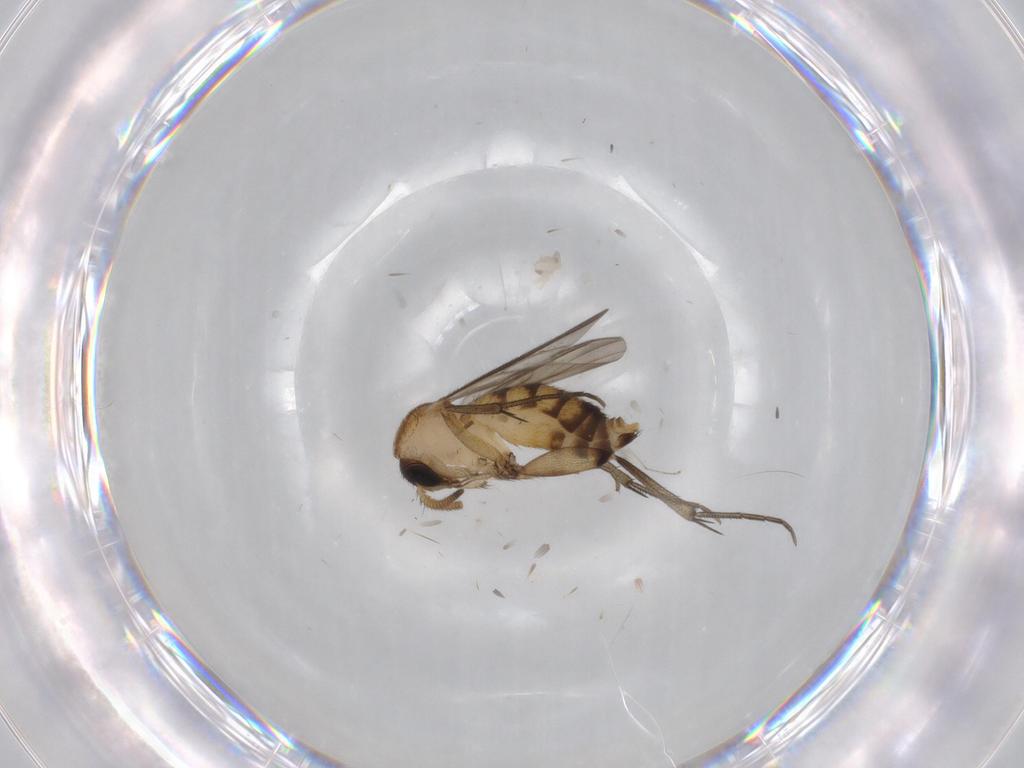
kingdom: Animalia
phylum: Arthropoda
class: Insecta
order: Diptera
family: Mycetophilidae
